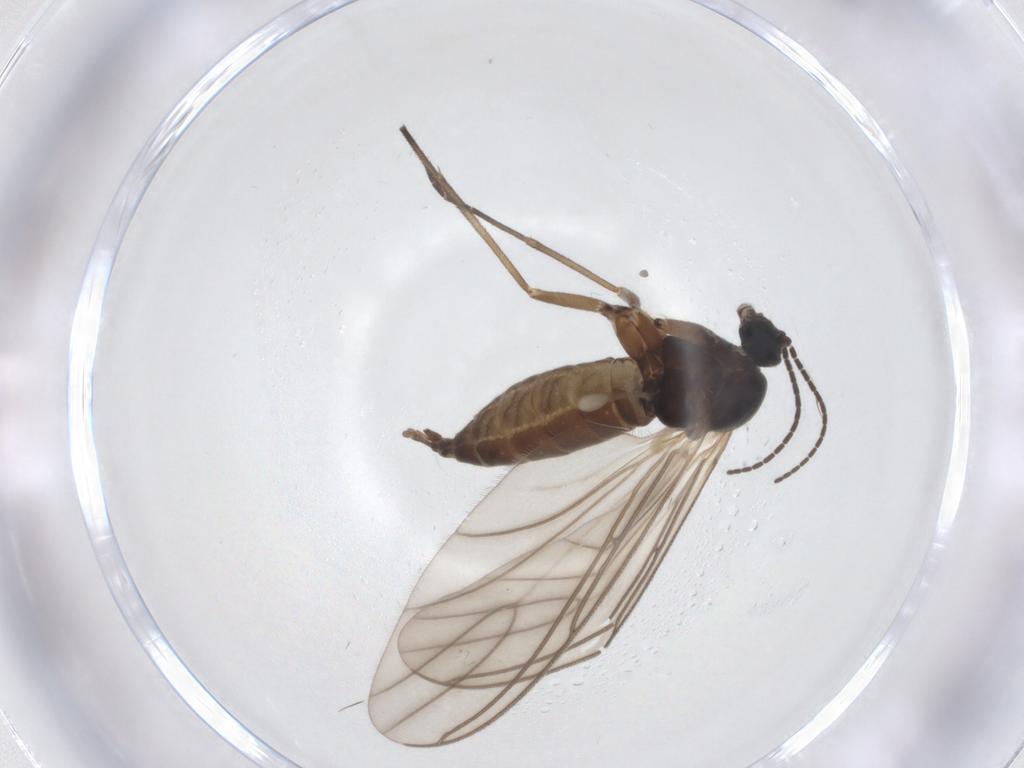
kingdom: Animalia
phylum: Arthropoda
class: Insecta
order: Diptera
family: Sciaridae
